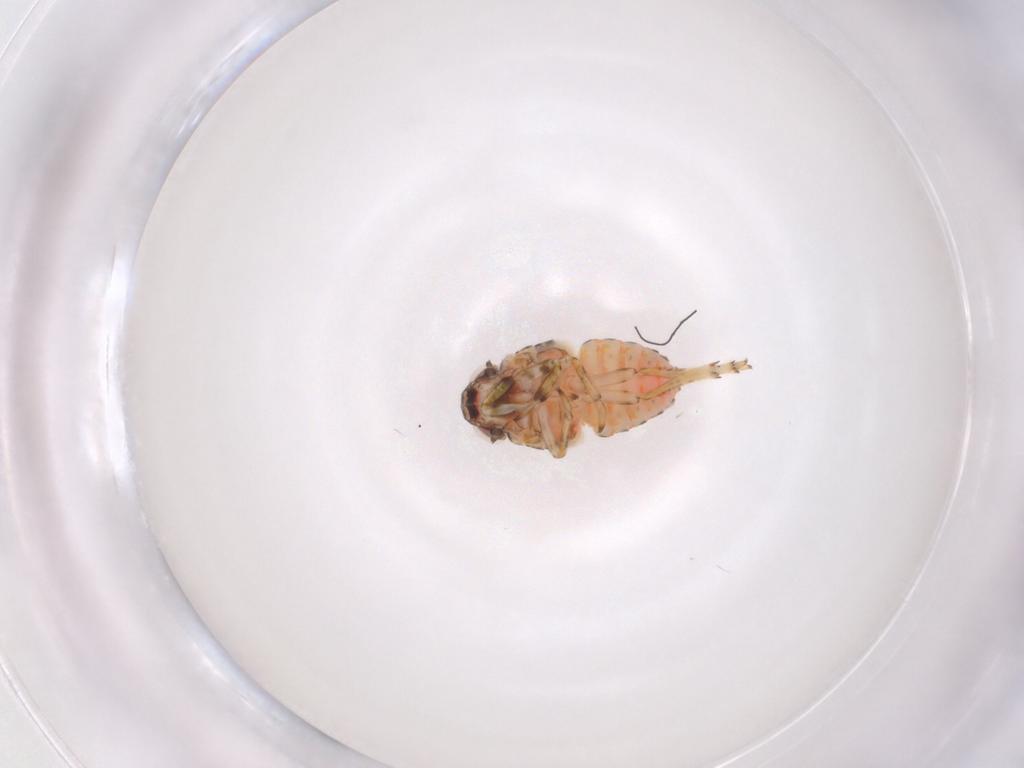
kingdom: Animalia
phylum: Arthropoda
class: Insecta
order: Hemiptera
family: Issidae
